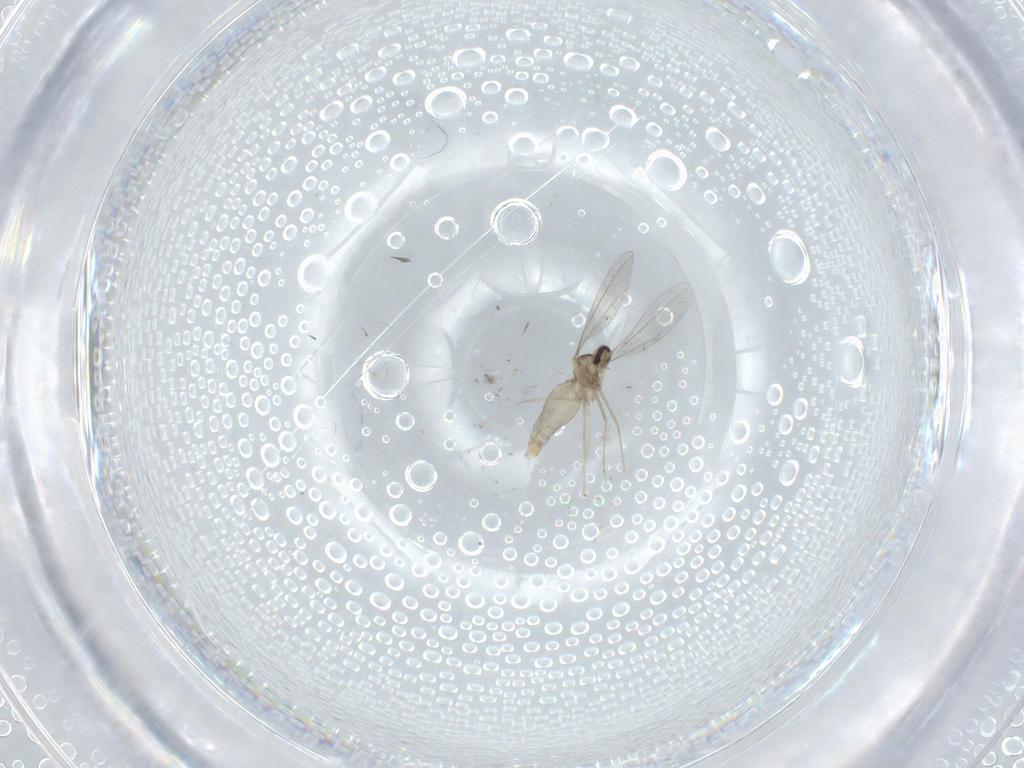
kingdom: Animalia
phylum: Arthropoda
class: Insecta
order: Diptera
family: Cecidomyiidae
